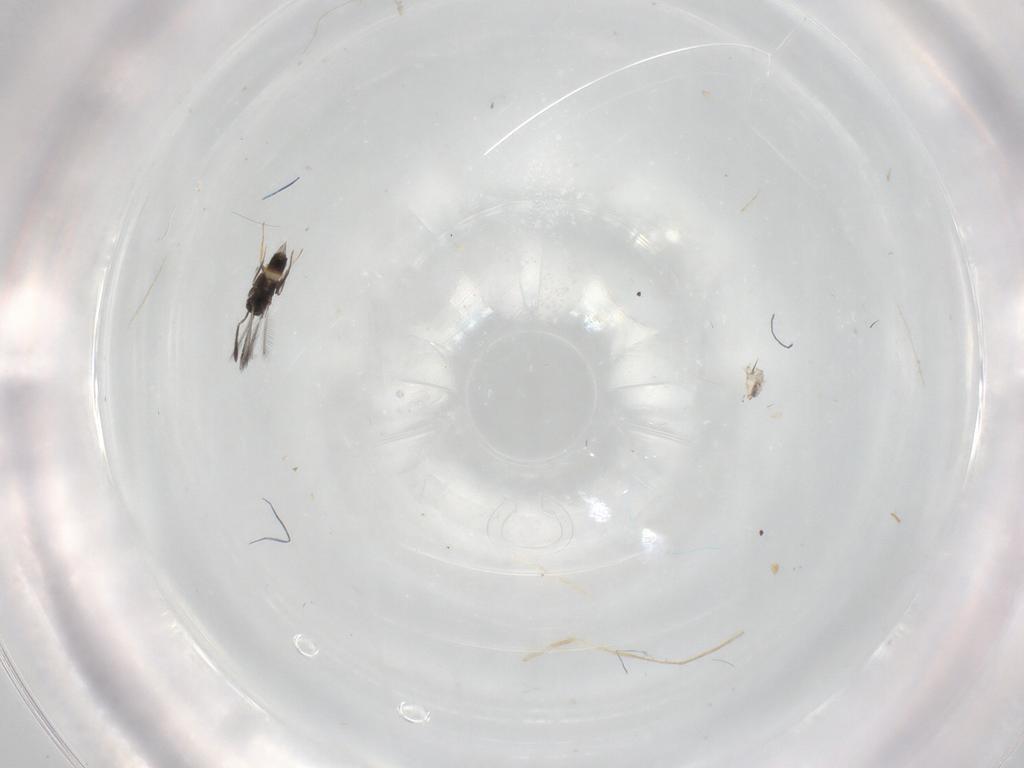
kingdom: Animalia
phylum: Arthropoda
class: Insecta
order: Hymenoptera
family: Mymaridae
